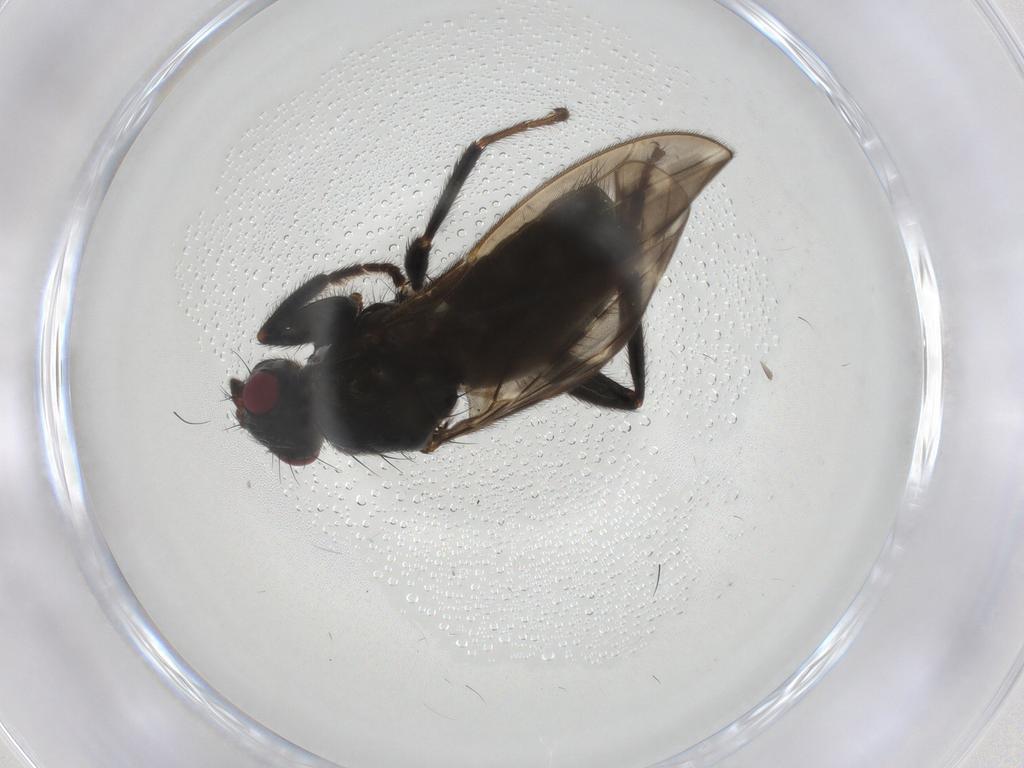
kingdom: Animalia
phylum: Arthropoda
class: Insecta
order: Diptera
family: Sphaeroceridae
